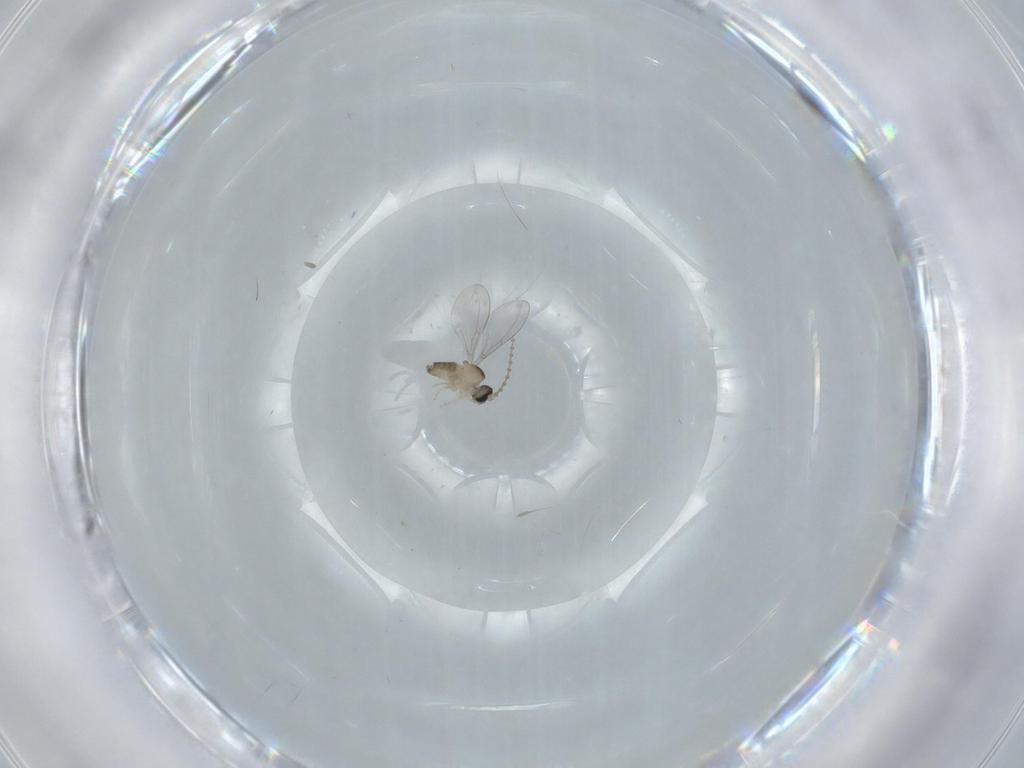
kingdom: Animalia
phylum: Arthropoda
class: Insecta
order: Diptera
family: Cecidomyiidae
